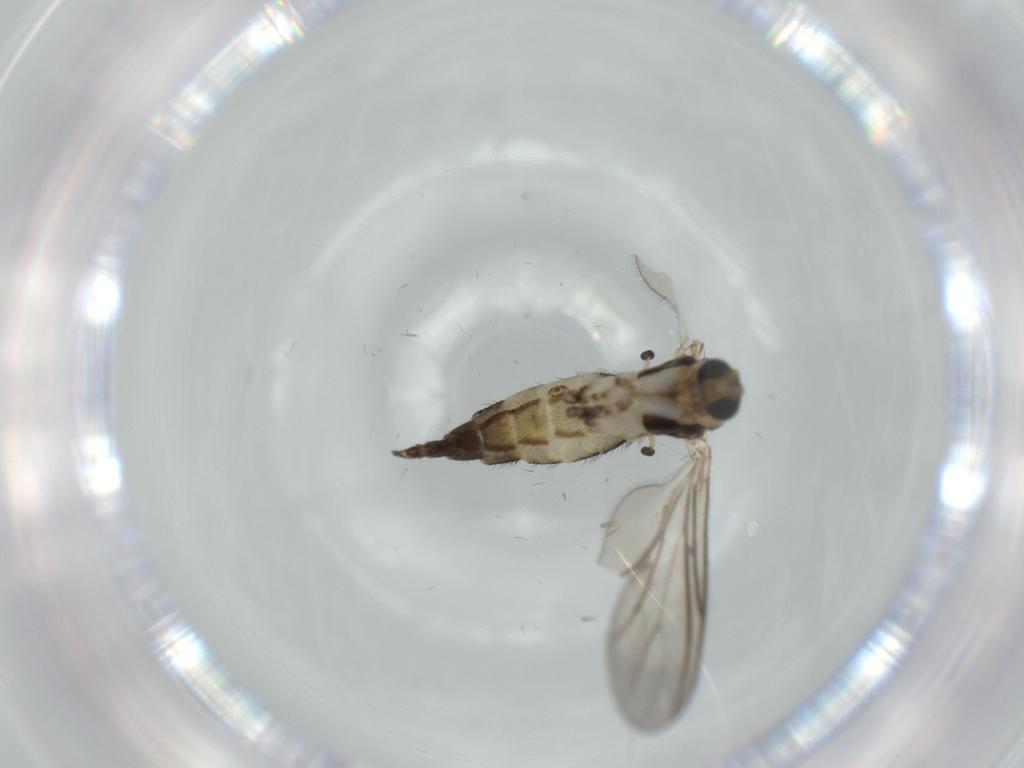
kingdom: Animalia
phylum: Arthropoda
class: Insecta
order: Diptera
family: Sciaridae
